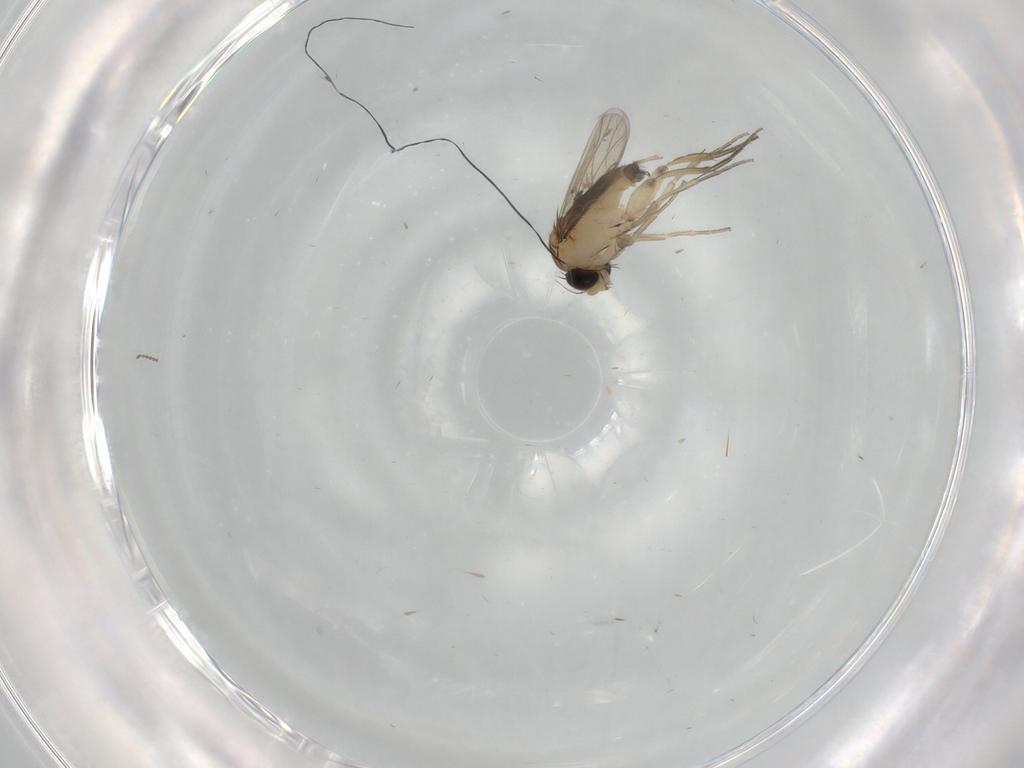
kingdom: Animalia
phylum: Arthropoda
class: Insecta
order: Diptera
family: Phoridae
